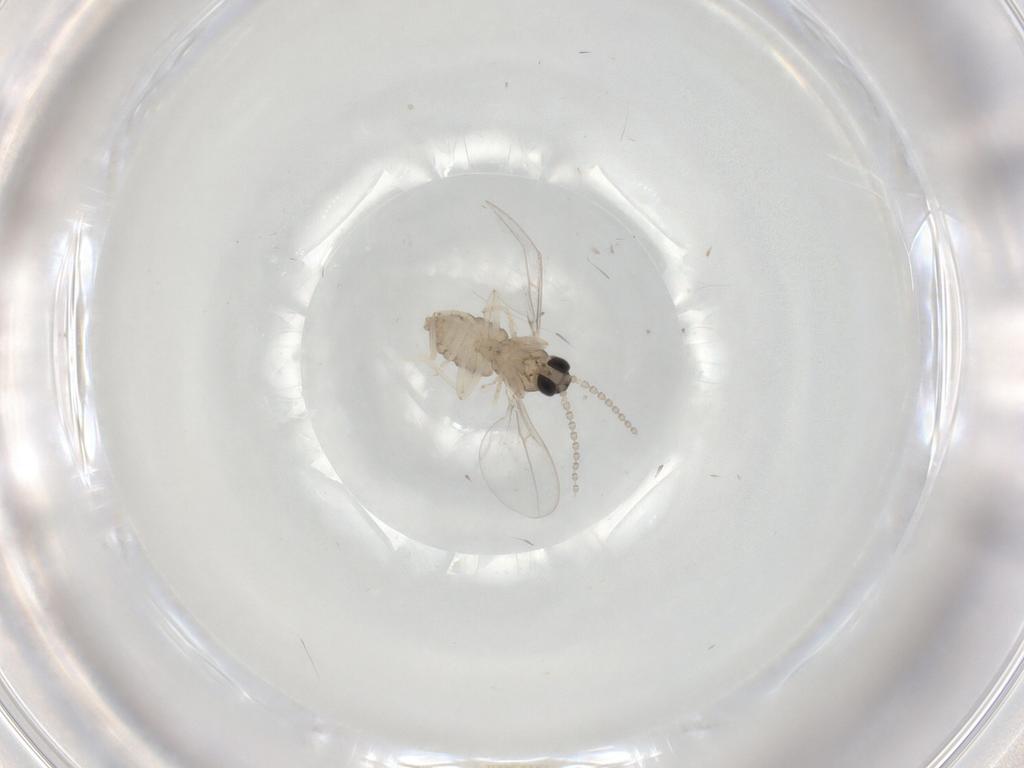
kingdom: Animalia
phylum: Arthropoda
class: Insecta
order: Diptera
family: Cecidomyiidae
